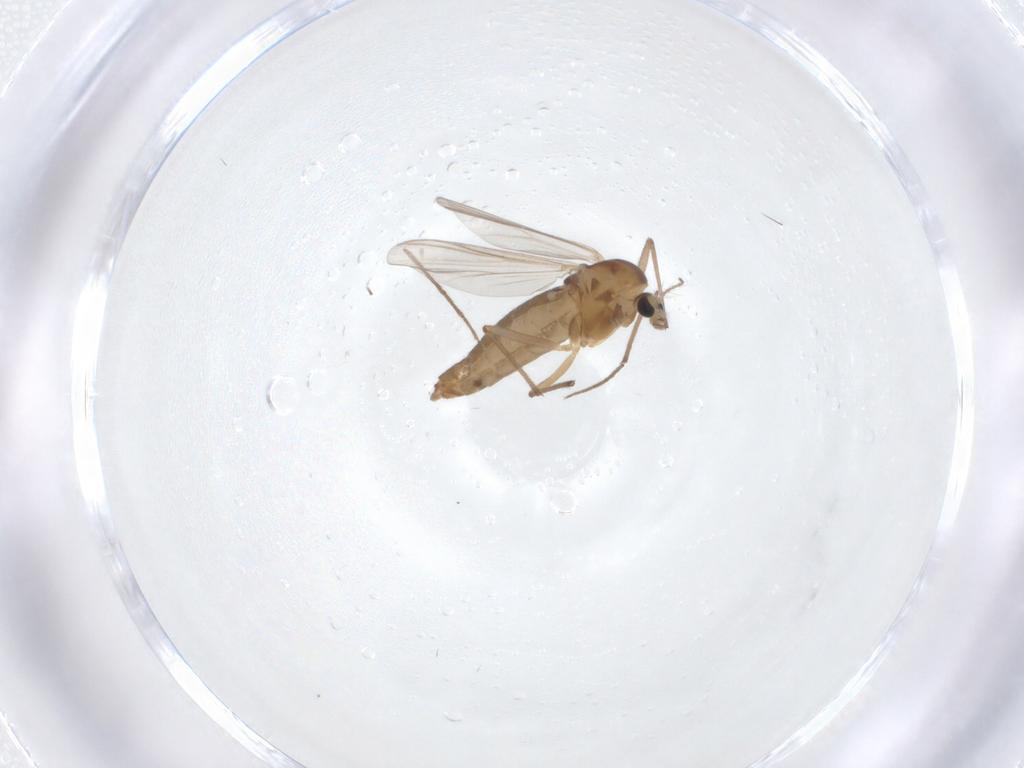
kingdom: Animalia
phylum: Arthropoda
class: Insecta
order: Diptera
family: Chironomidae
